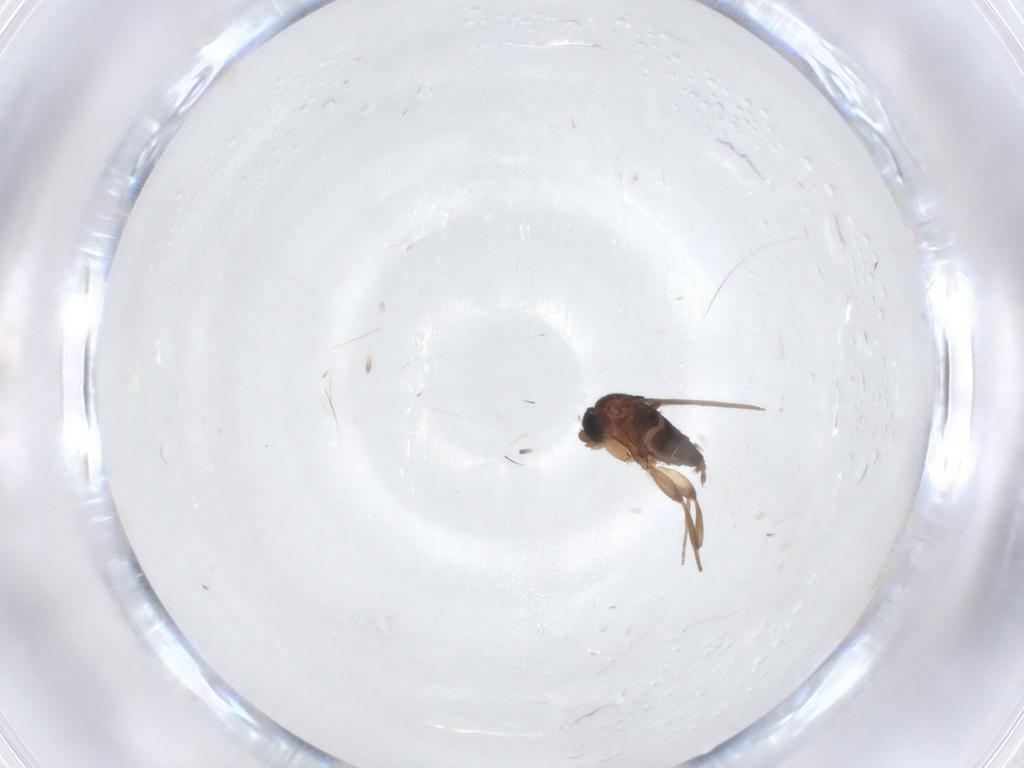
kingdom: Animalia
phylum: Arthropoda
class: Insecta
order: Diptera
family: Phoridae
